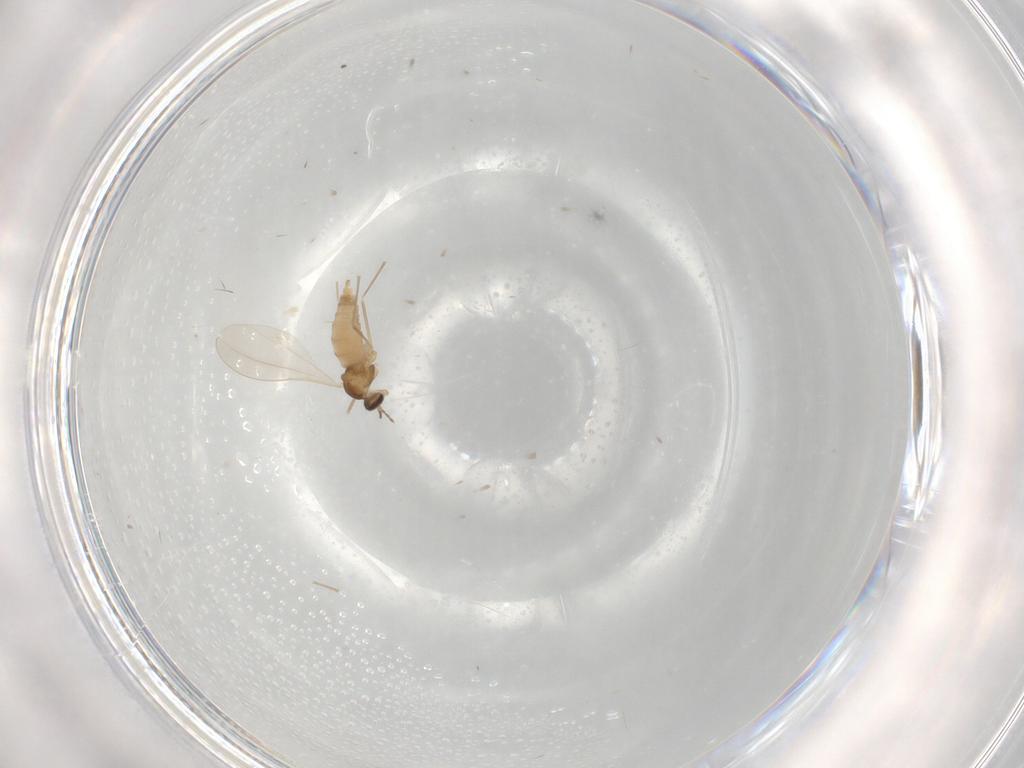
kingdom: Animalia
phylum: Arthropoda
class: Insecta
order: Diptera
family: Cecidomyiidae
